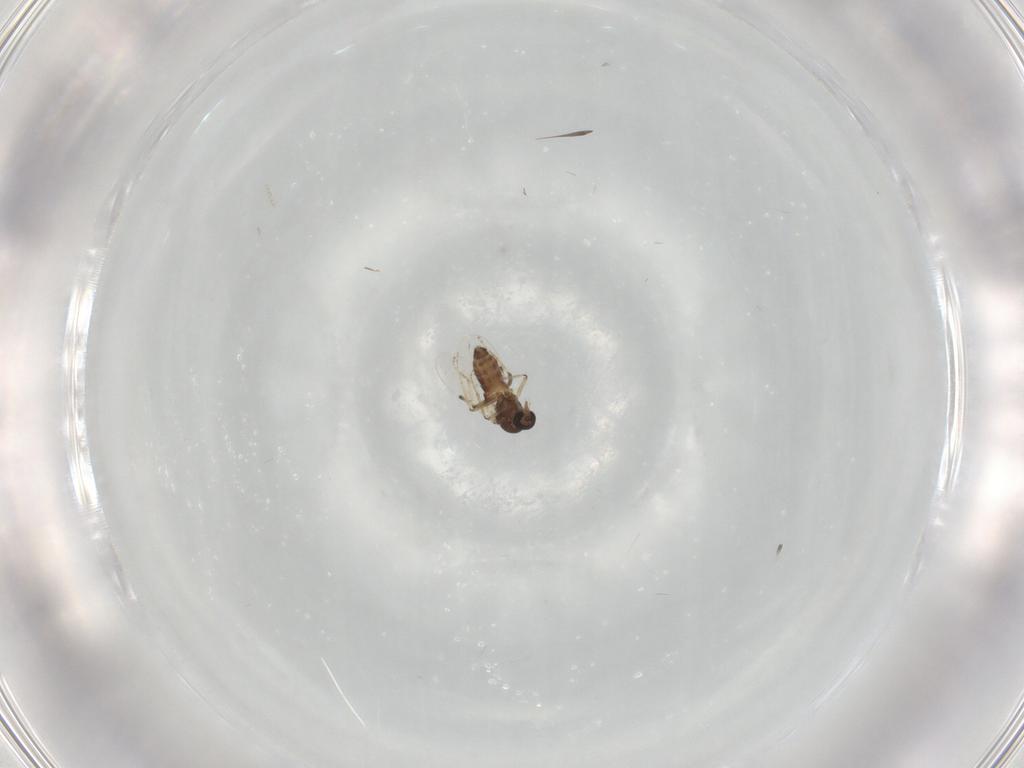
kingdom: Animalia
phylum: Arthropoda
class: Insecta
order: Diptera
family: Ceratopogonidae
